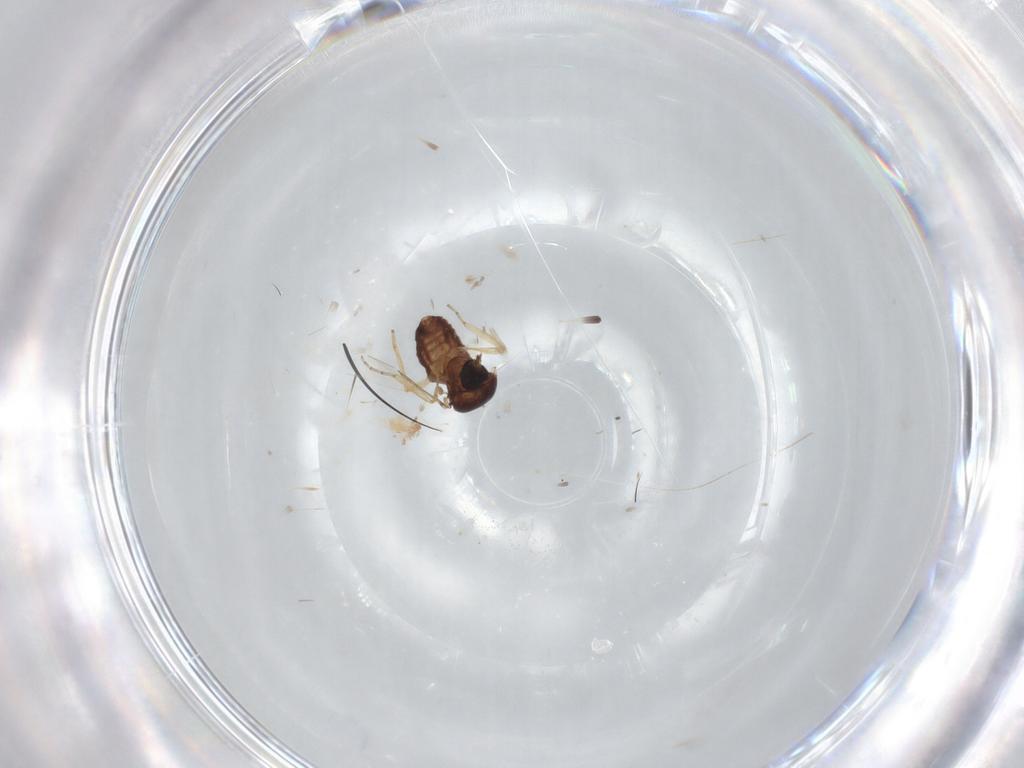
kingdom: Animalia
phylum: Arthropoda
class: Insecta
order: Diptera
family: Ceratopogonidae
